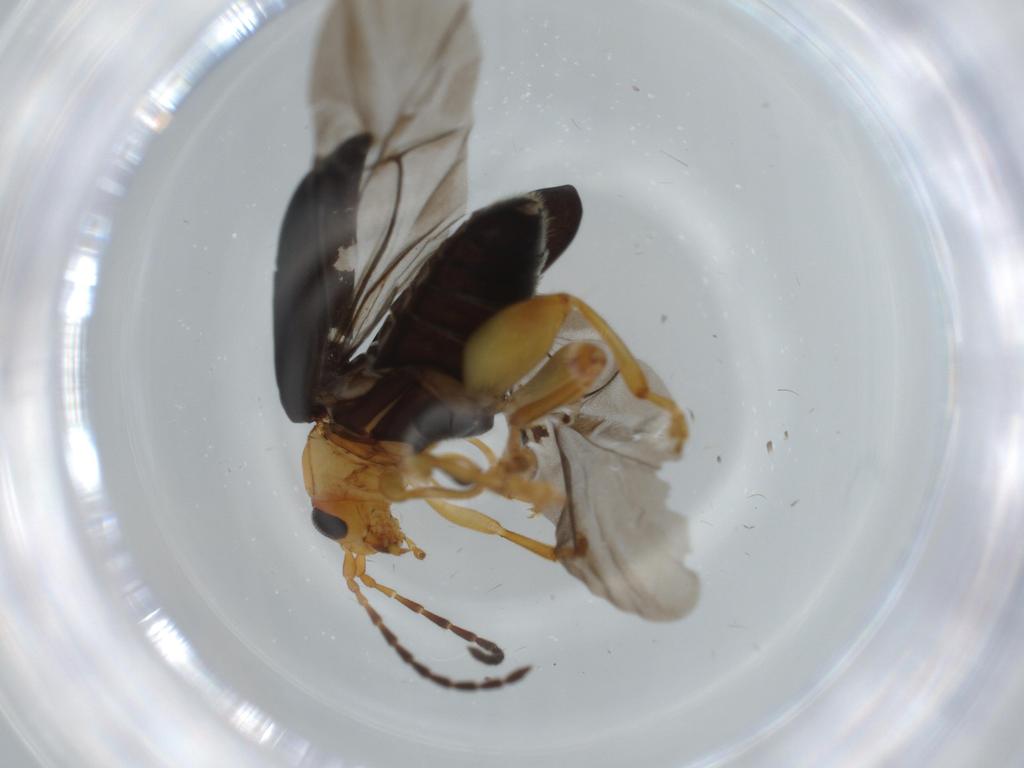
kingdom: Animalia
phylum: Arthropoda
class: Insecta
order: Coleoptera
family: Chrysomelidae
